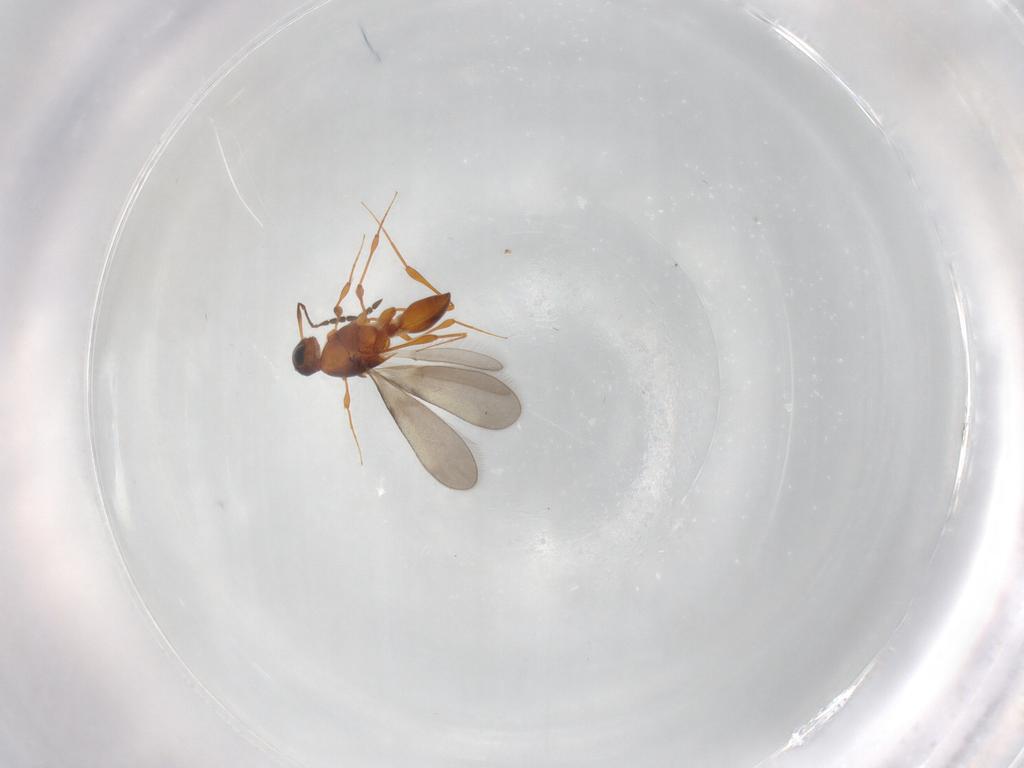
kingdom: Animalia
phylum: Arthropoda
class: Insecta
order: Hymenoptera
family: Platygastridae
